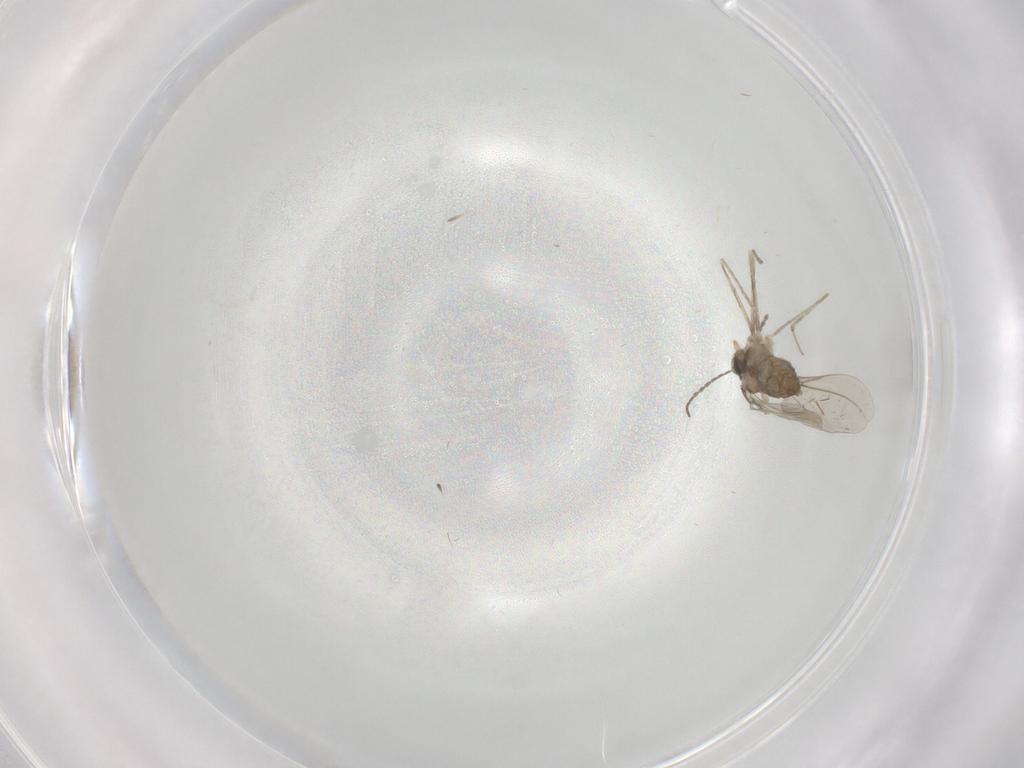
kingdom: Animalia
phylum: Arthropoda
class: Insecta
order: Diptera
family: Cecidomyiidae
